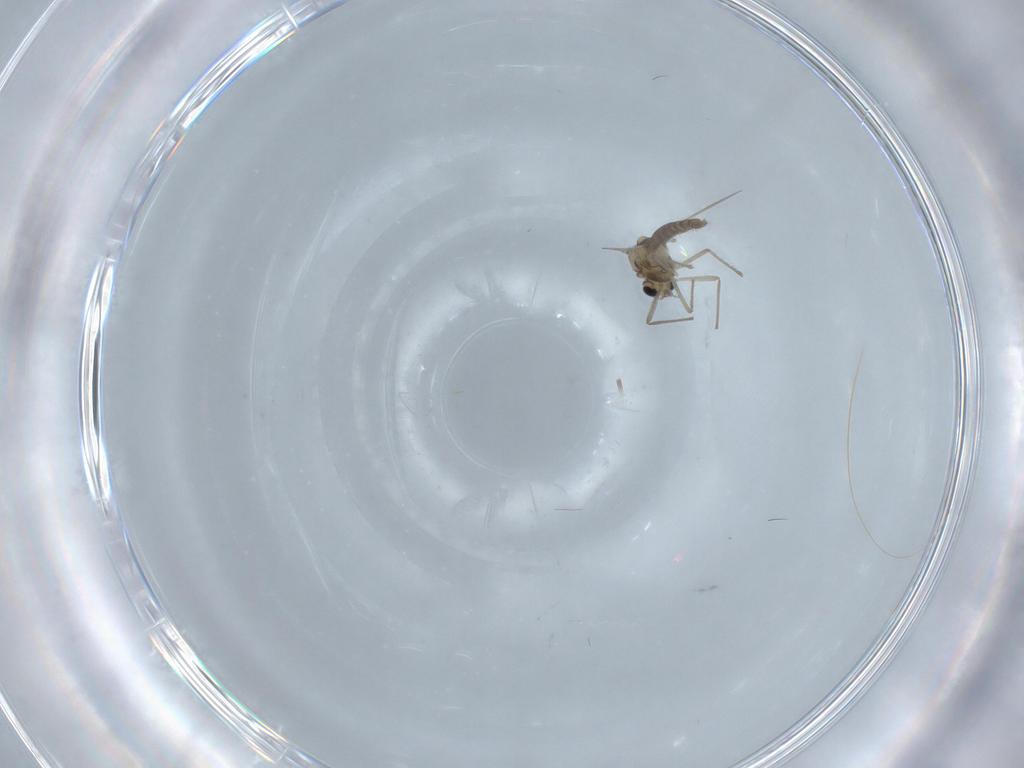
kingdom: Animalia
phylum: Arthropoda
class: Insecta
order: Diptera
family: Chironomidae
